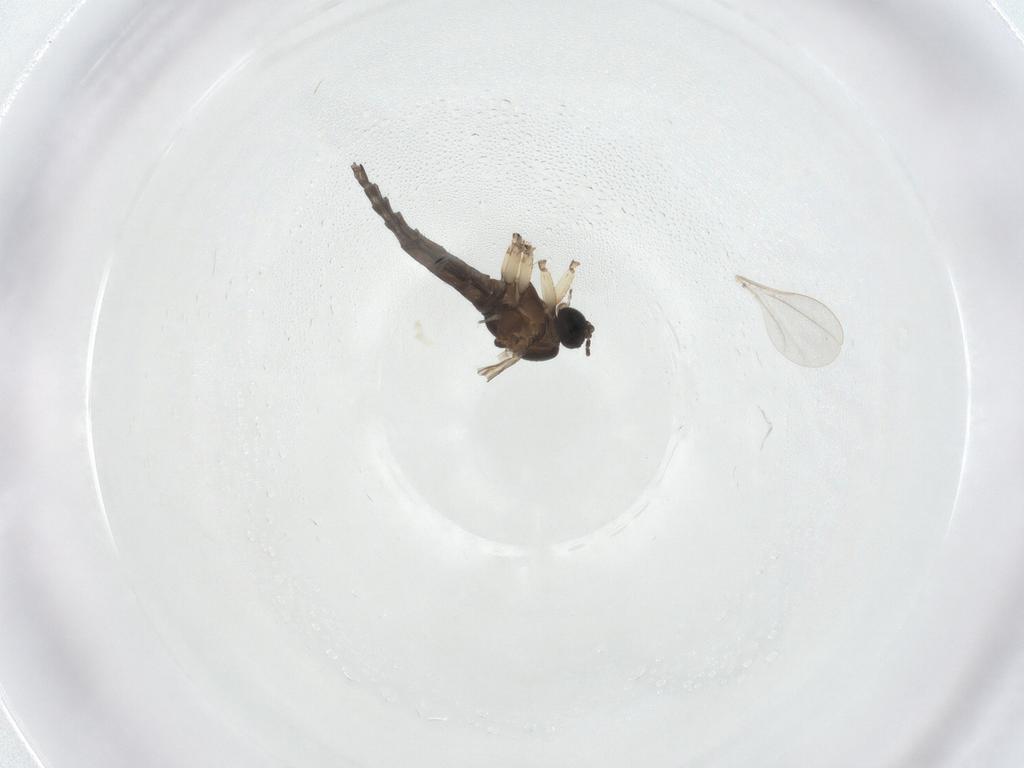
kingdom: Animalia
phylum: Arthropoda
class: Insecta
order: Diptera
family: Sciaridae
